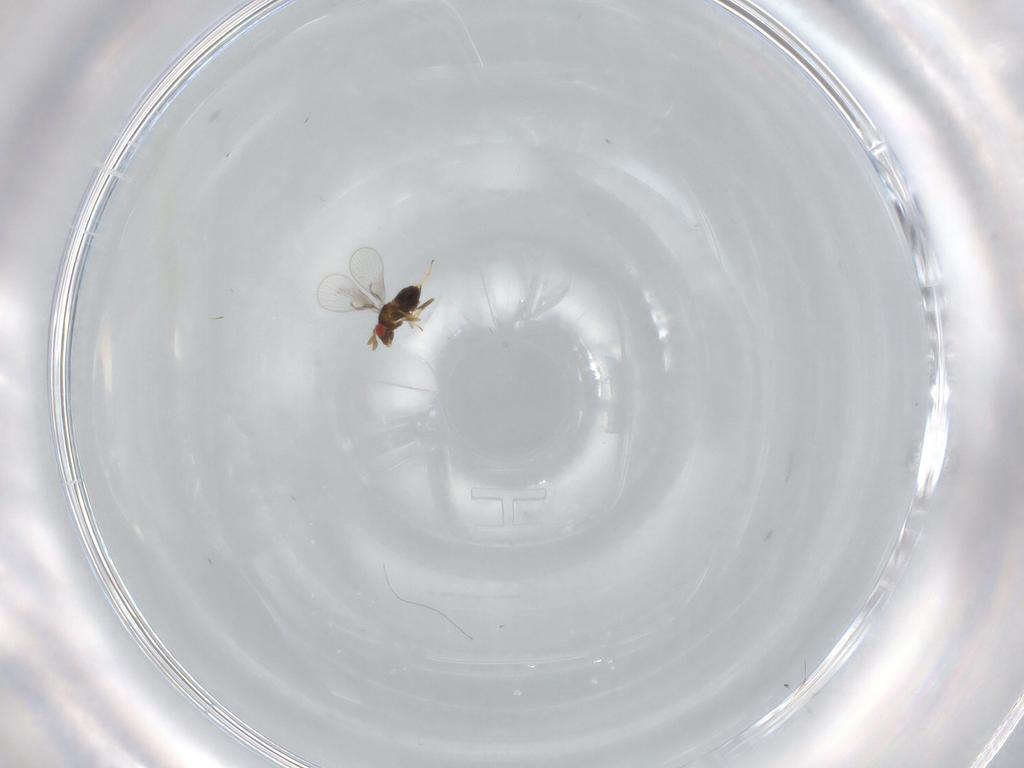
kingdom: Animalia
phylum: Arthropoda
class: Insecta
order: Hymenoptera
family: Trichogrammatidae
